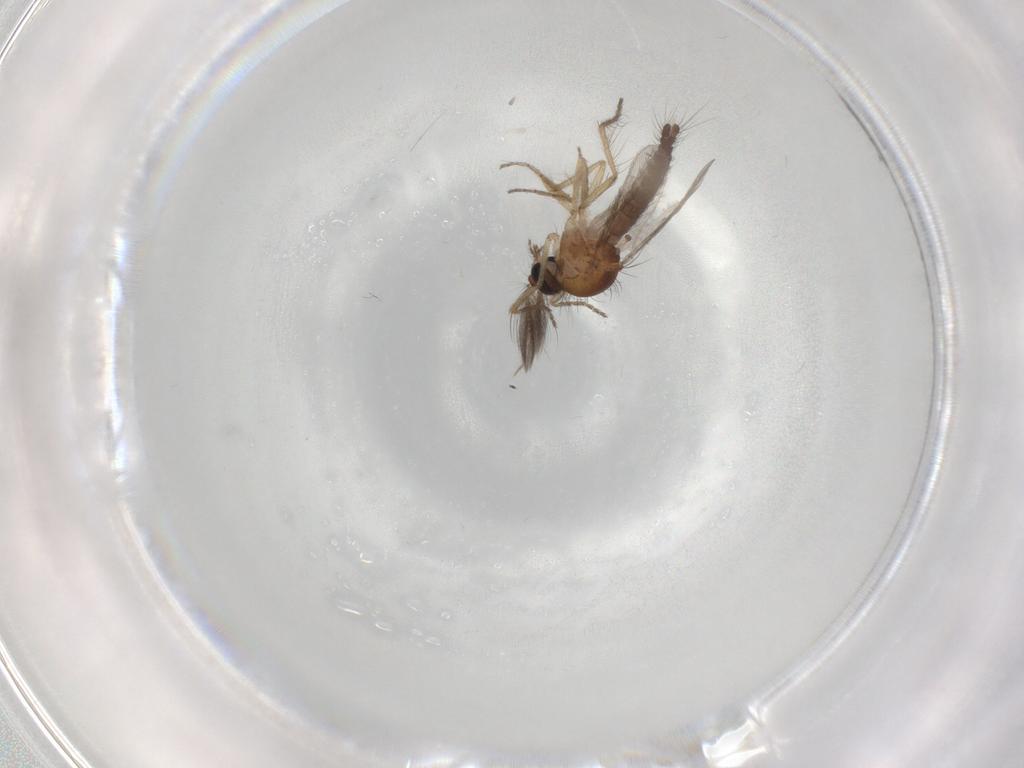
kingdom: Animalia
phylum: Arthropoda
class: Insecta
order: Diptera
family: Ceratopogonidae
